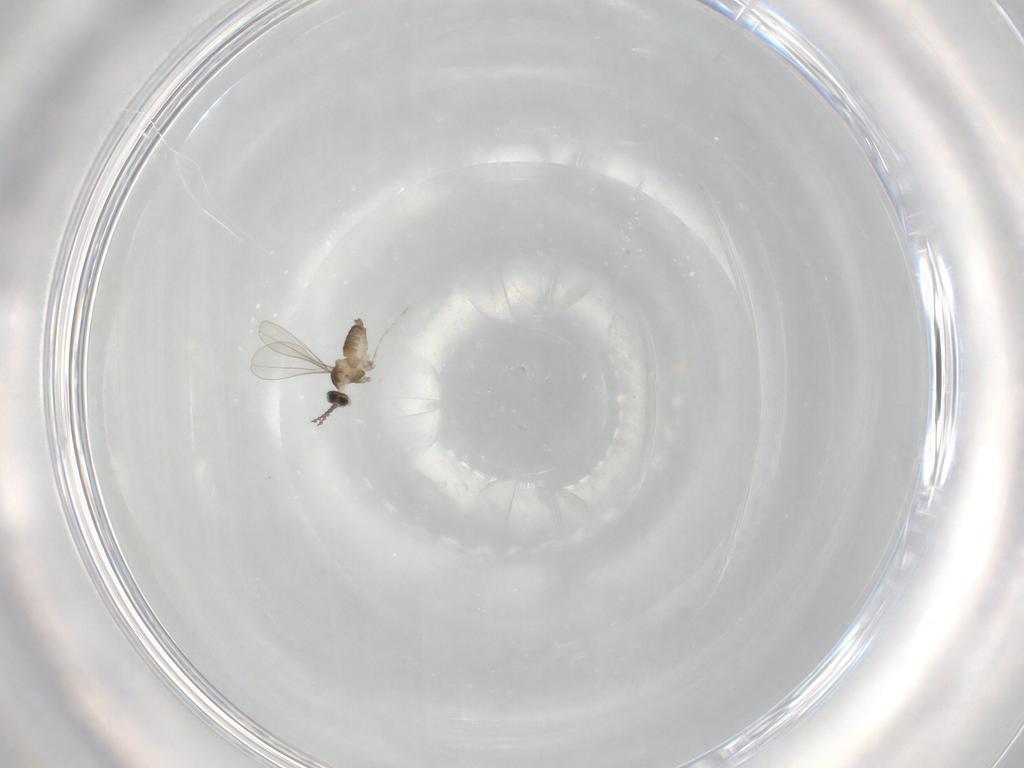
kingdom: Animalia
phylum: Arthropoda
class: Insecta
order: Diptera
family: Cecidomyiidae
